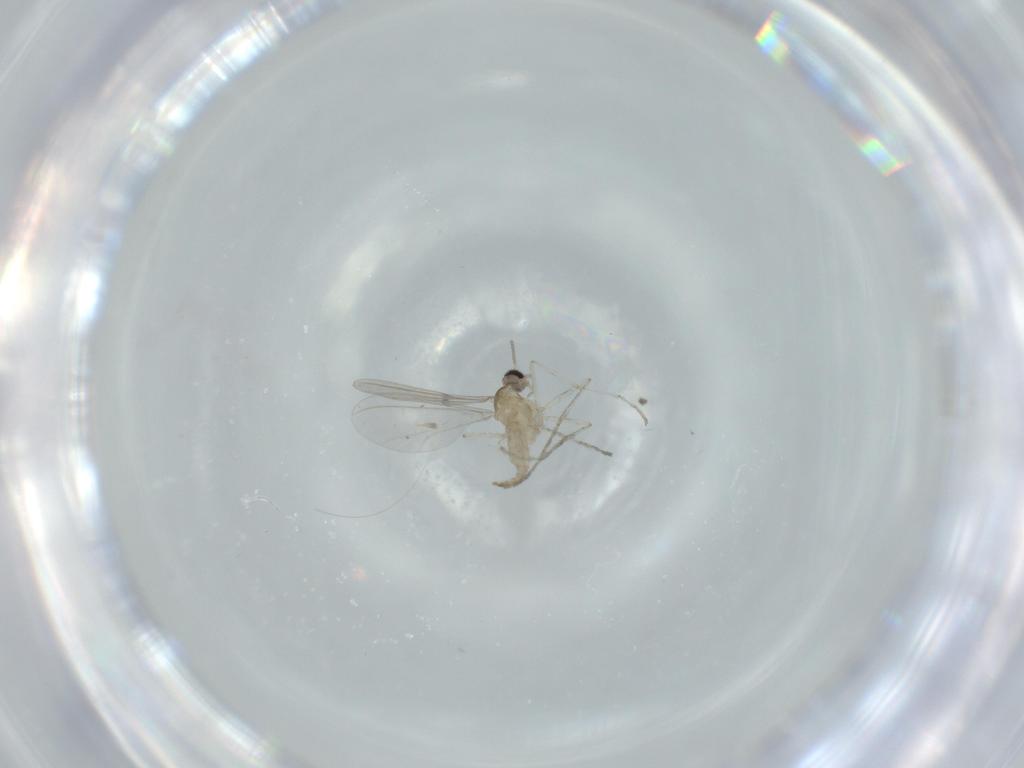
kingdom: Animalia
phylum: Arthropoda
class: Insecta
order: Diptera
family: Cecidomyiidae
